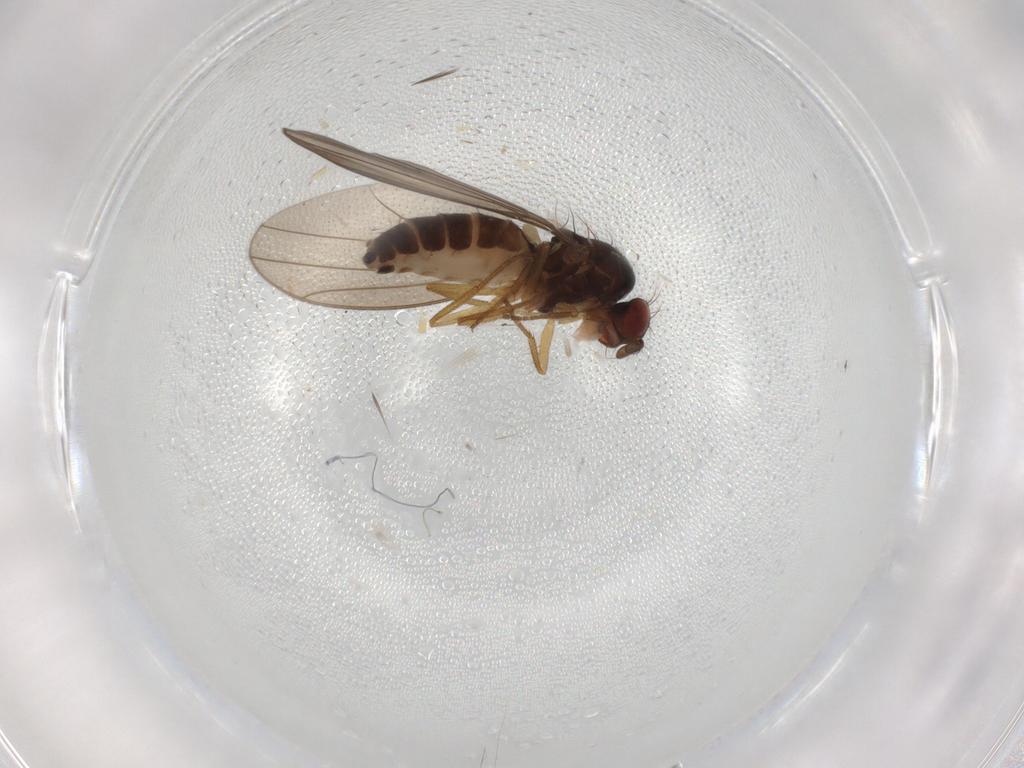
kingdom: Animalia
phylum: Arthropoda
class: Insecta
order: Diptera
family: Drosophilidae
